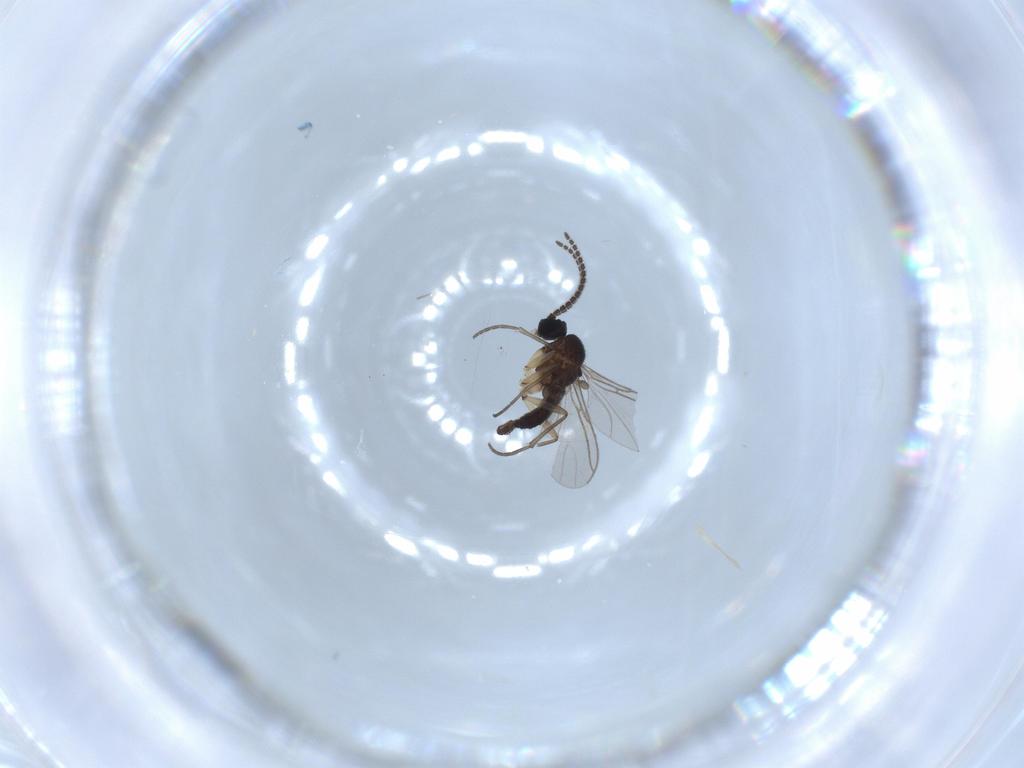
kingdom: Animalia
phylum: Arthropoda
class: Insecta
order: Diptera
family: Sciaridae
